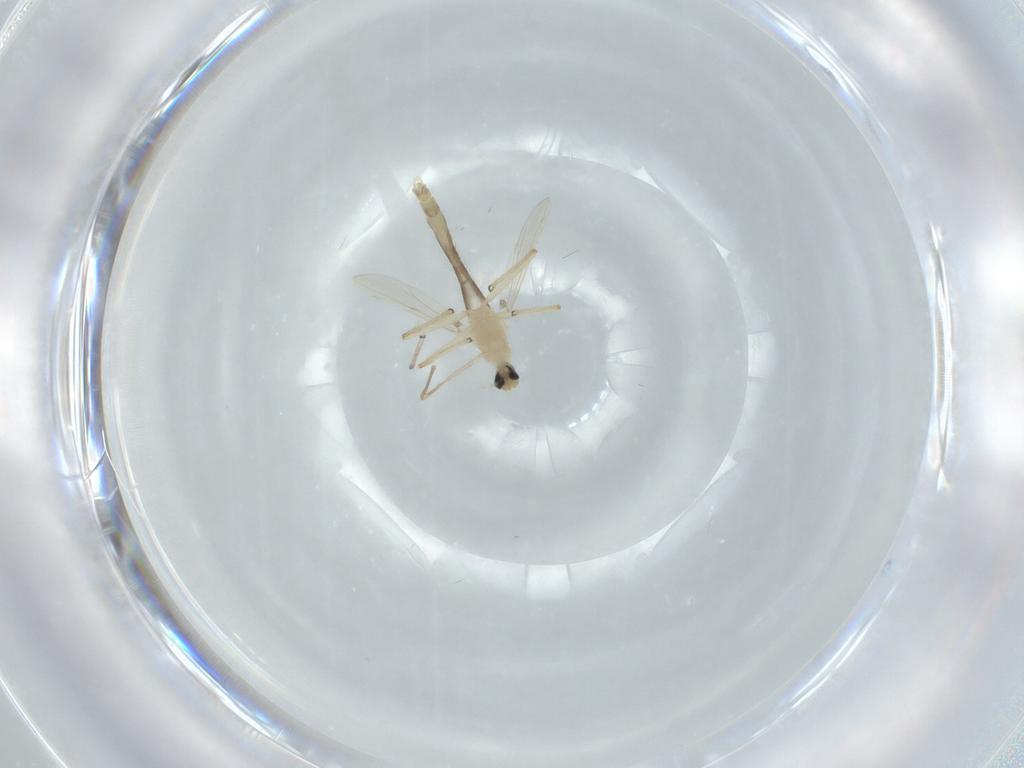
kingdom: Animalia
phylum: Arthropoda
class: Insecta
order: Diptera
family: Chironomidae
